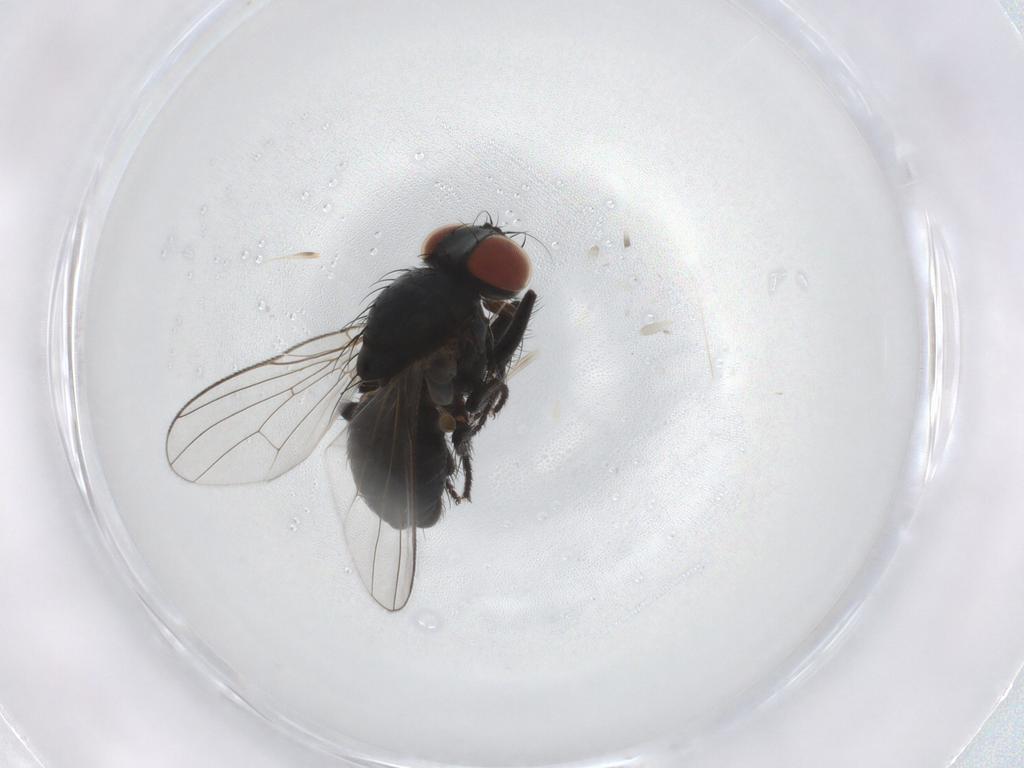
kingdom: Animalia
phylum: Arthropoda
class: Insecta
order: Diptera
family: Muscidae
